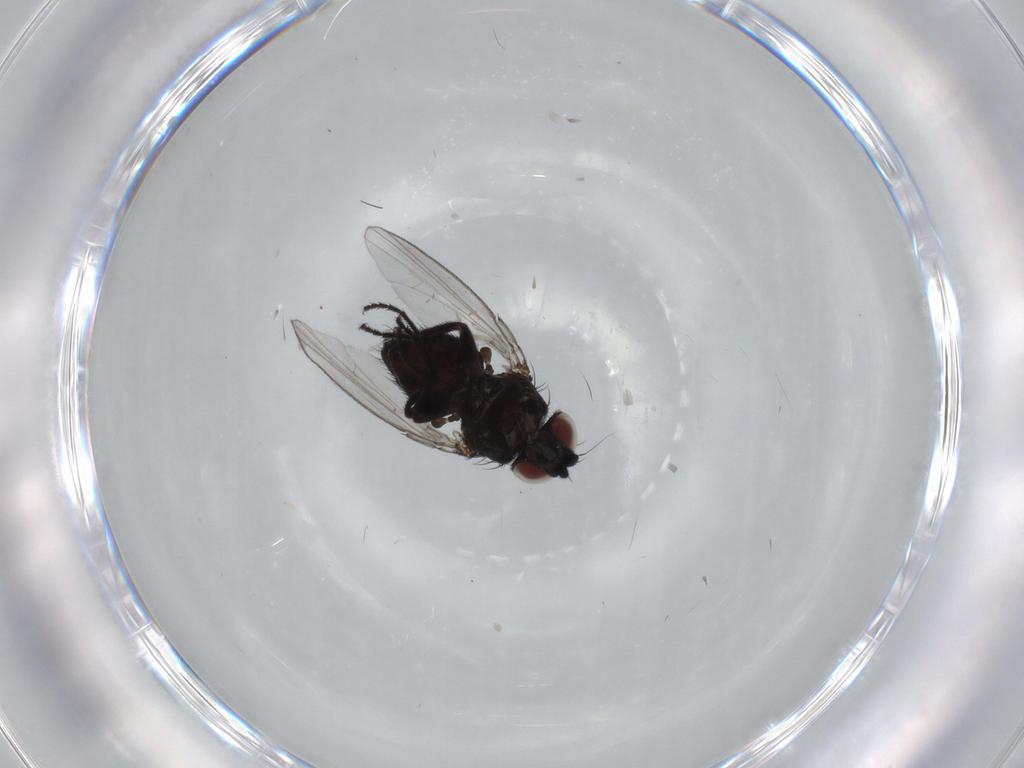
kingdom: Animalia
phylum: Arthropoda
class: Insecta
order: Diptera
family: Milichiidae
